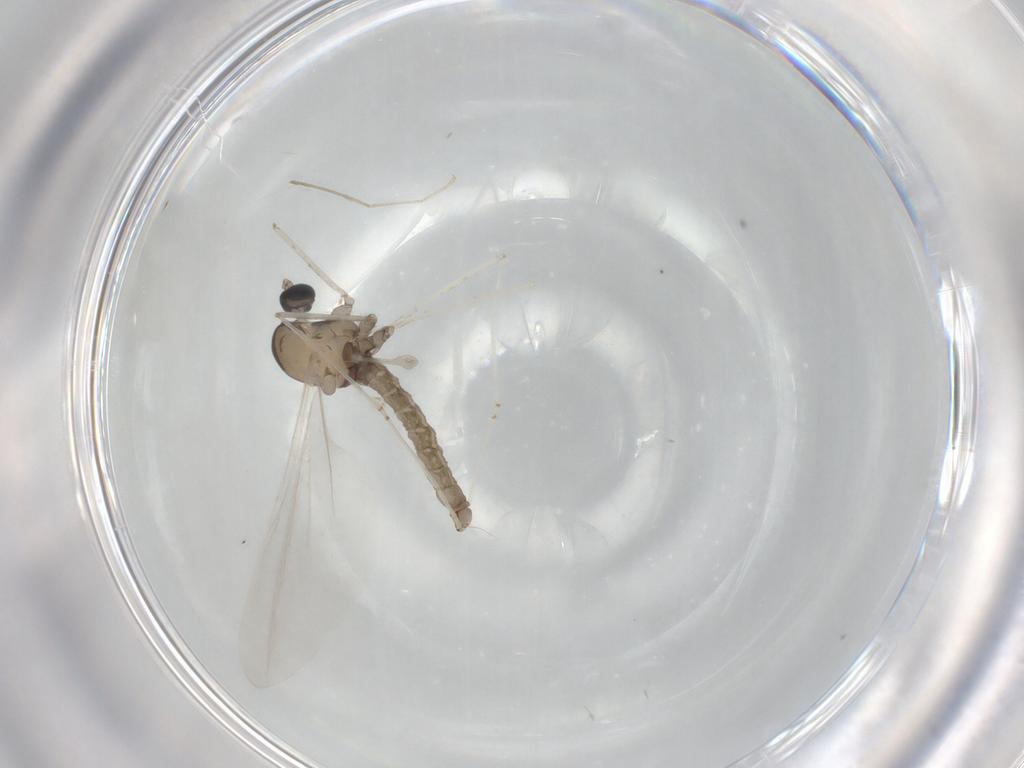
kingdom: Animalia
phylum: Arthropoda
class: Insecta
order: Diptera
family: Cecidomyiidae
